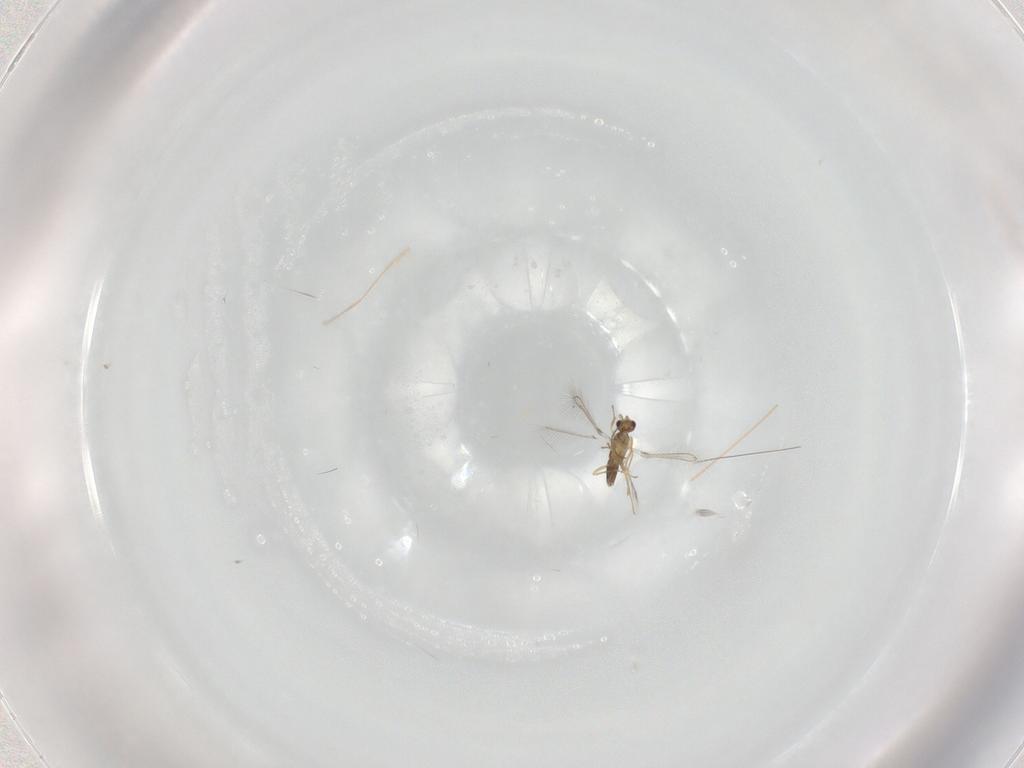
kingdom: Animalia
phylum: Arthropoda
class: Insecta
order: Hymenoptera
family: Mymaridae
